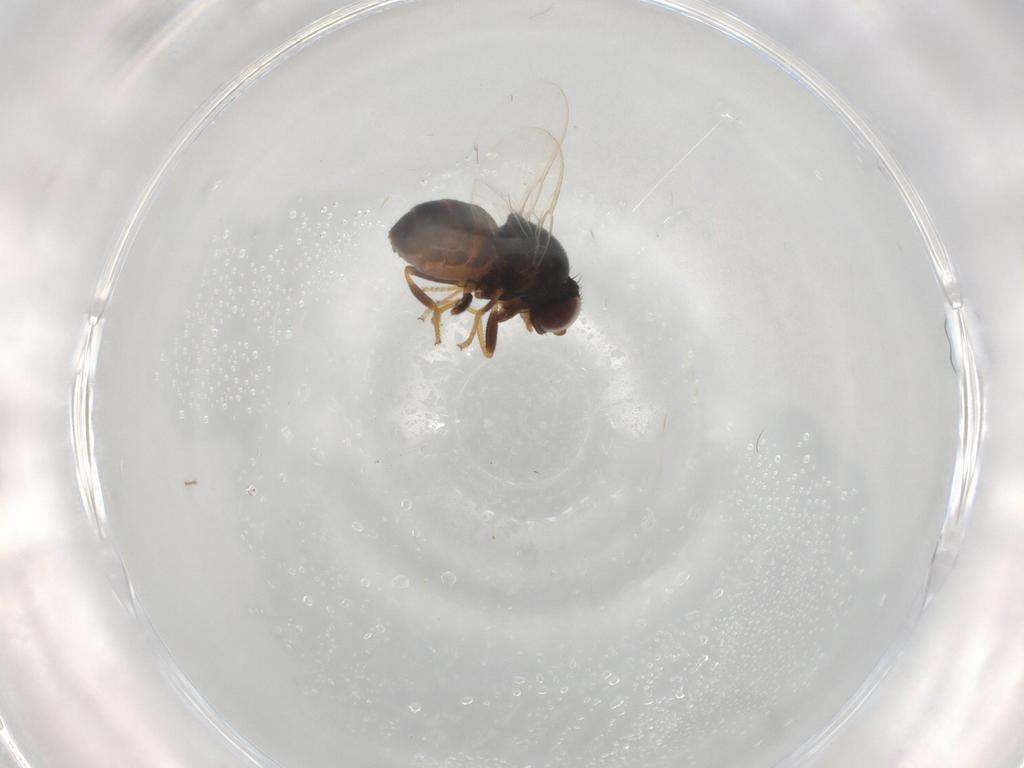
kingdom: Animalia
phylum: Arthropoda
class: Insecta
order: Diptera
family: Chloropidae
